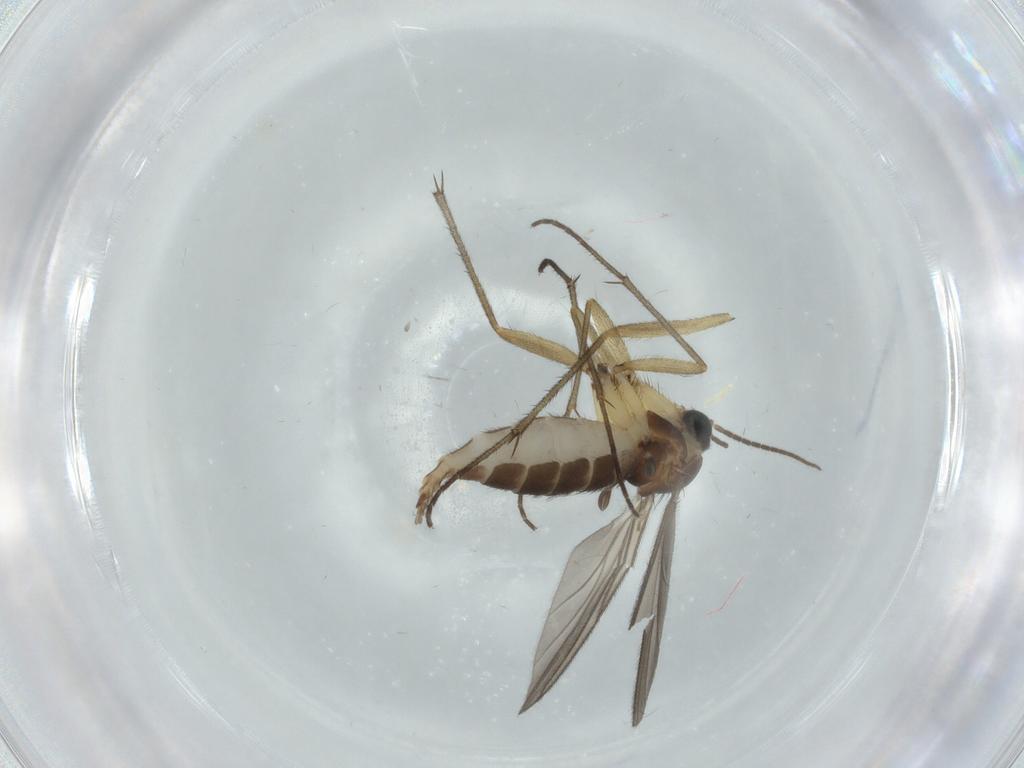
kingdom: Animalia
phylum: Arthropoda
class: Insecta
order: Diptera
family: Sciaridae
